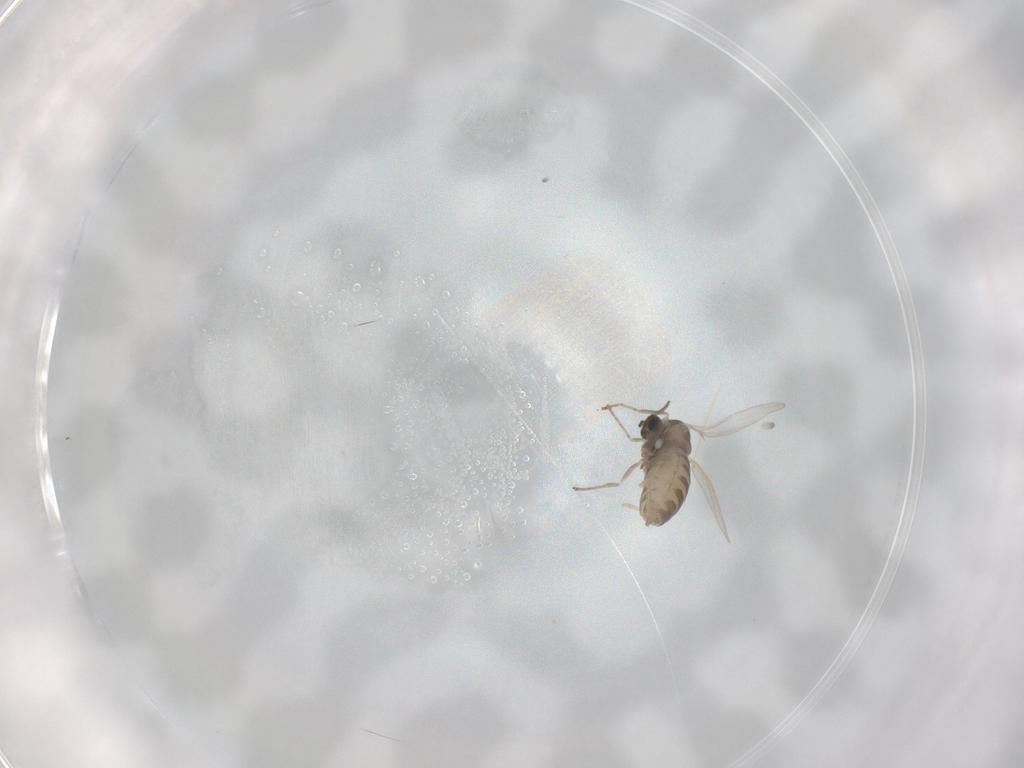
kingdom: Animalia
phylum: Arthropoda
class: Insecta
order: Diptera
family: Cecidomyiidae
